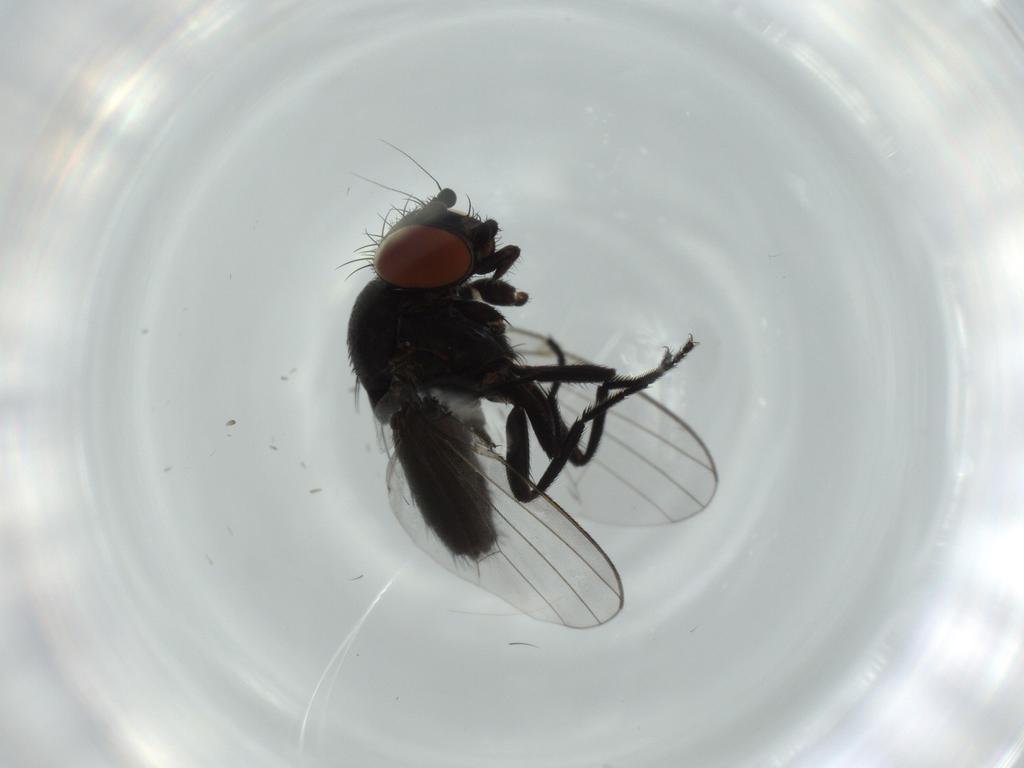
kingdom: Animalia
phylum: Arthropoda
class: Insecta
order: Diptera
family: Milichiidae
